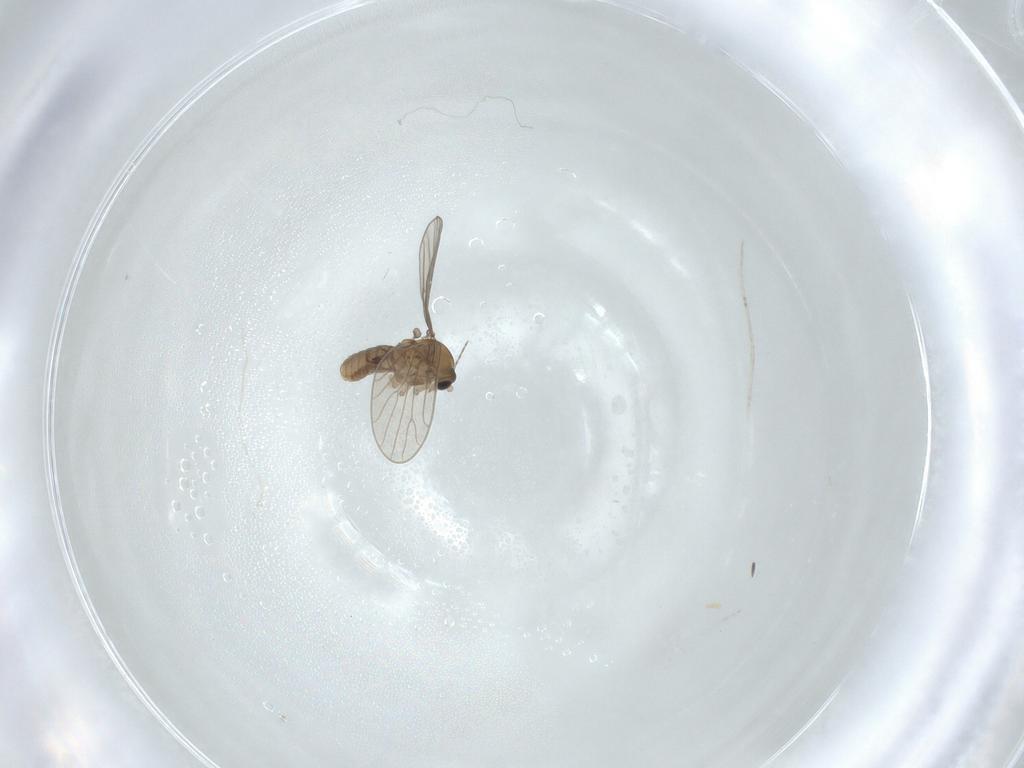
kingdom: Animalia
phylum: Arthropoda
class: Insecta
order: Diptera
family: Psychodidae
